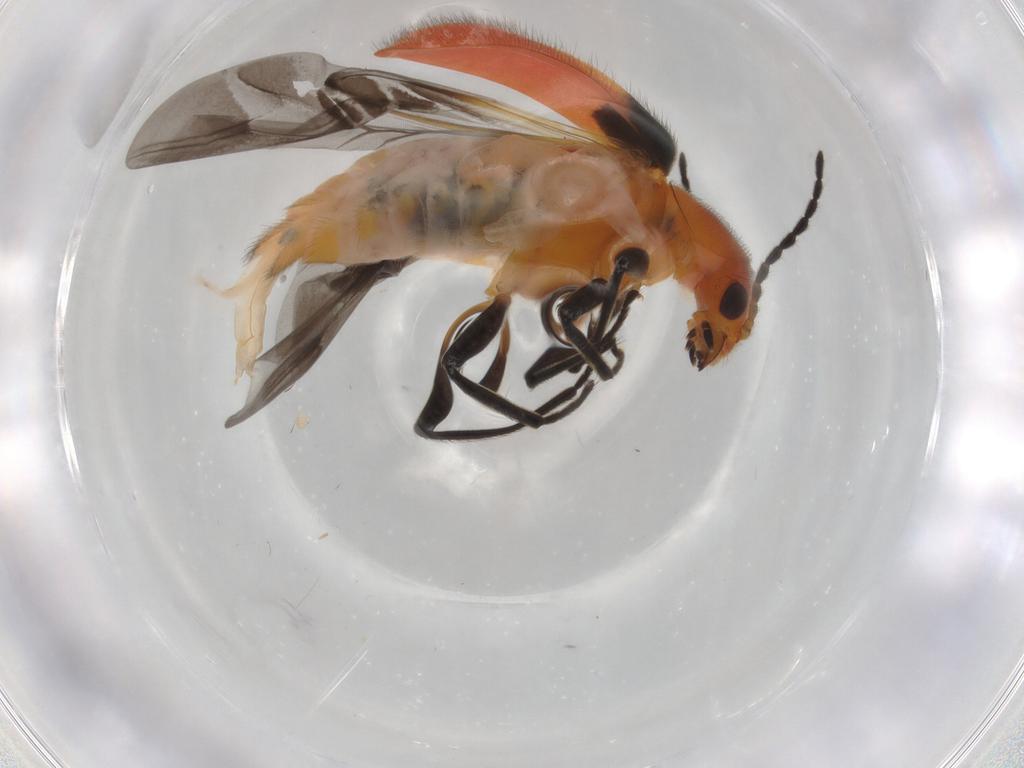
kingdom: Animalia
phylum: Arthropoda
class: Insecta
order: Coleoptera
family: Melyridae
